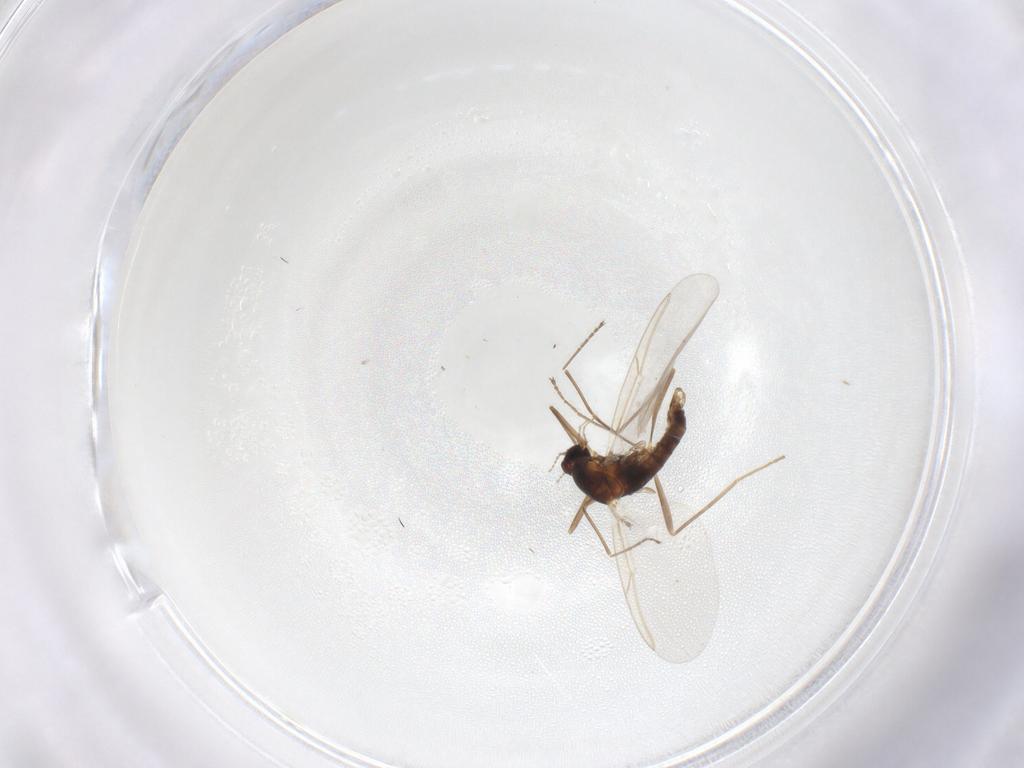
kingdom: Animalia
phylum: Arthropoda
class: Insecta
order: Diptera
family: Cecidomyiidae
